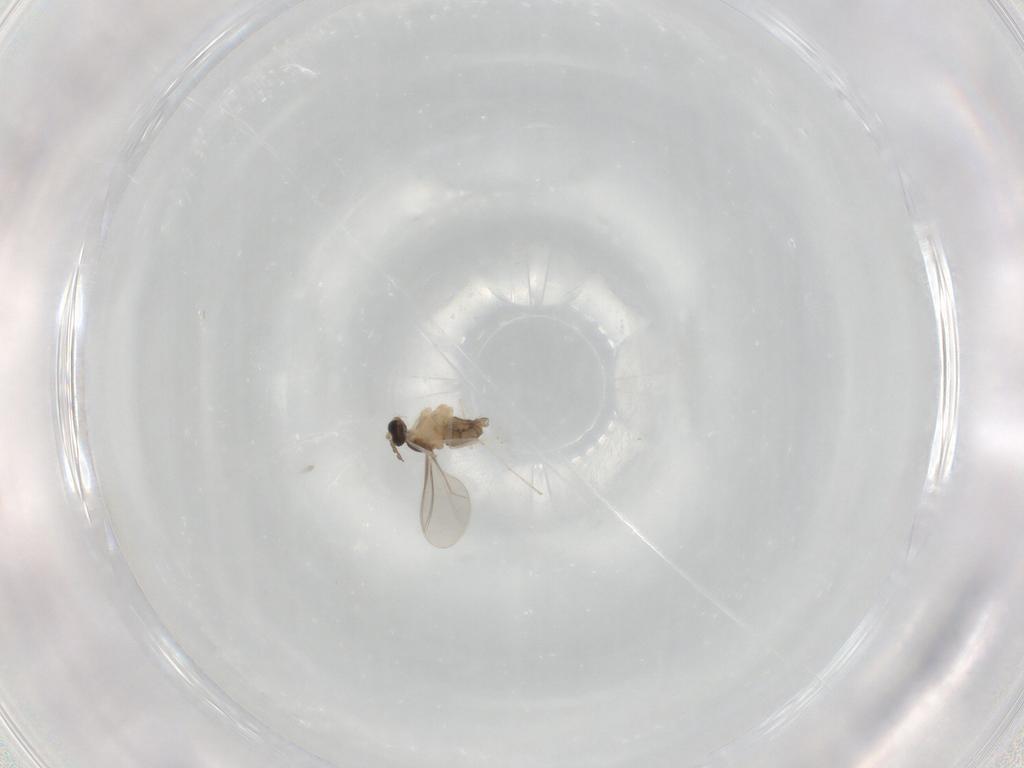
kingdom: Animalia
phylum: Arthropoda
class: Insecta
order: Diptera
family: Cecidomyiidae
